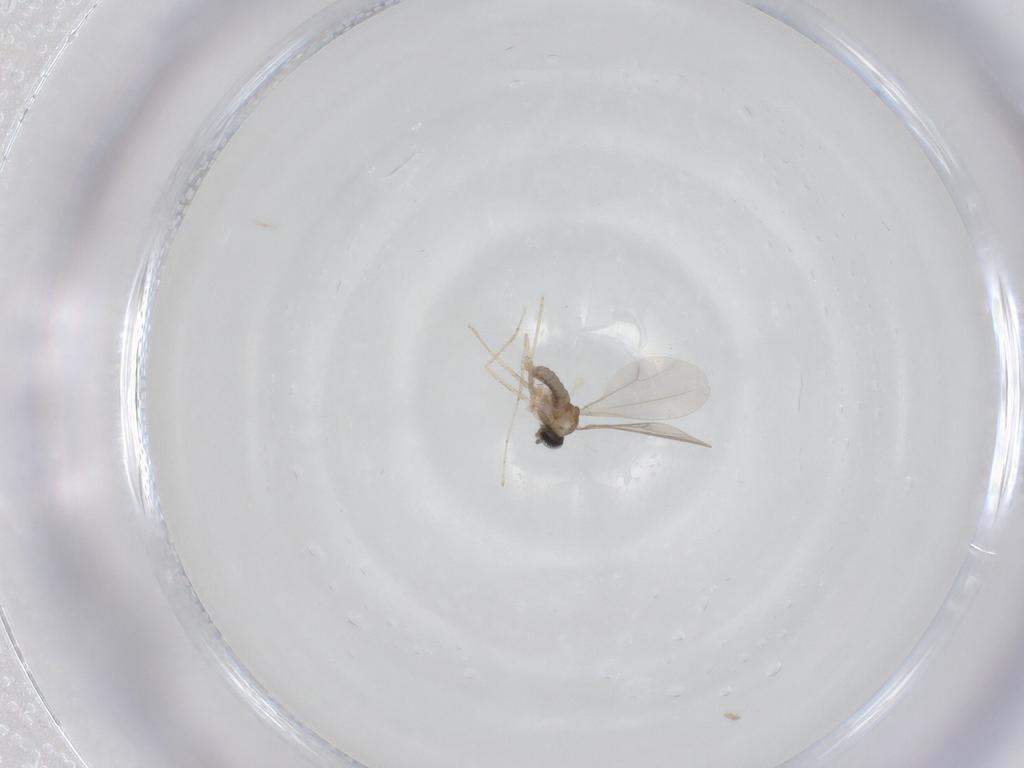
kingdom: Animalia
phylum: Arthropoda
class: Insecta
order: Diptera
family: Cecidomyiidae
